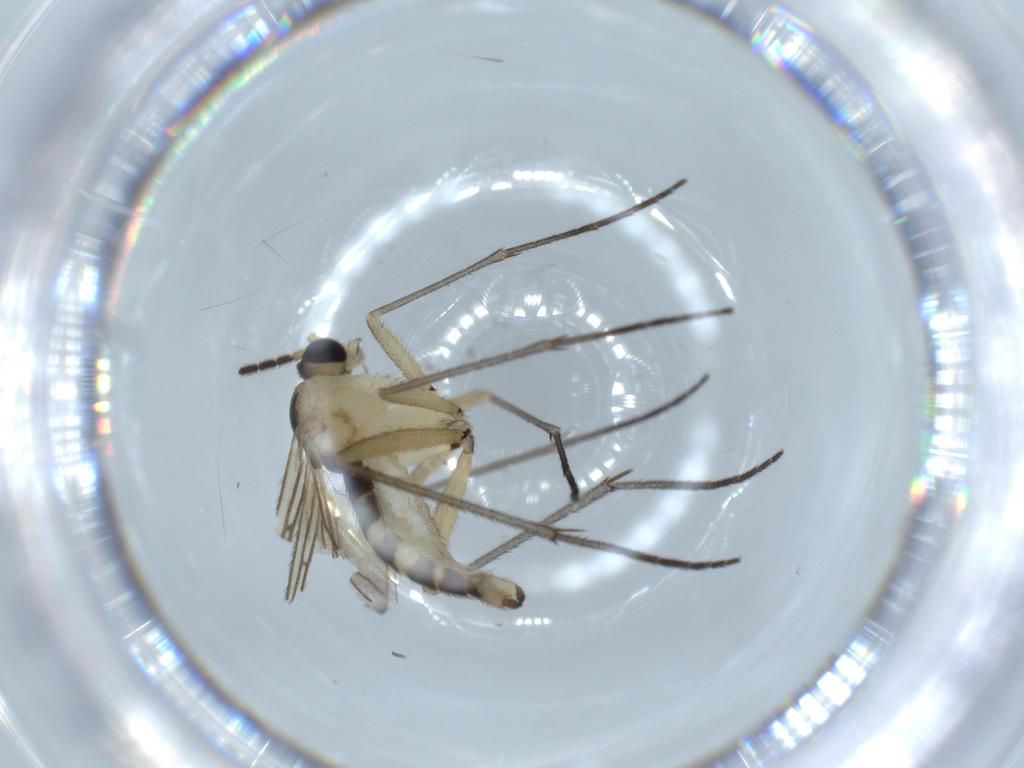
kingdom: Animalia
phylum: Arthropoda
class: Insecta
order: Diptera
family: Sciaridae
